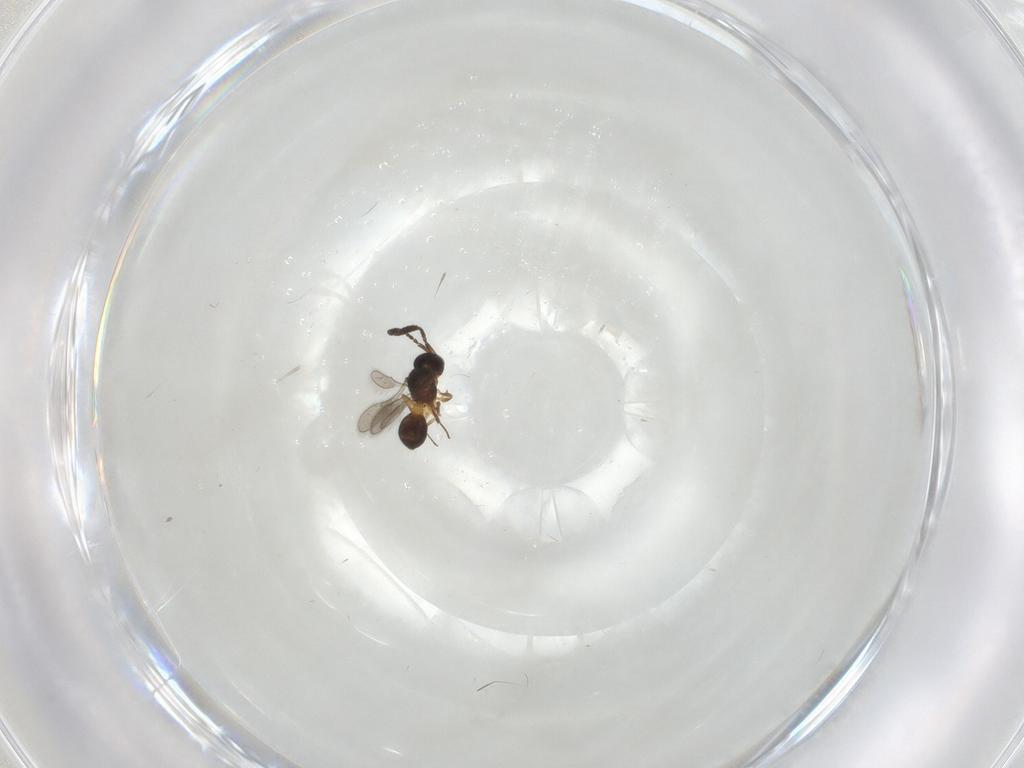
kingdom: Animalia
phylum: Arthropoda
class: Insecta
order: Hymenoptera
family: Scelionidae
